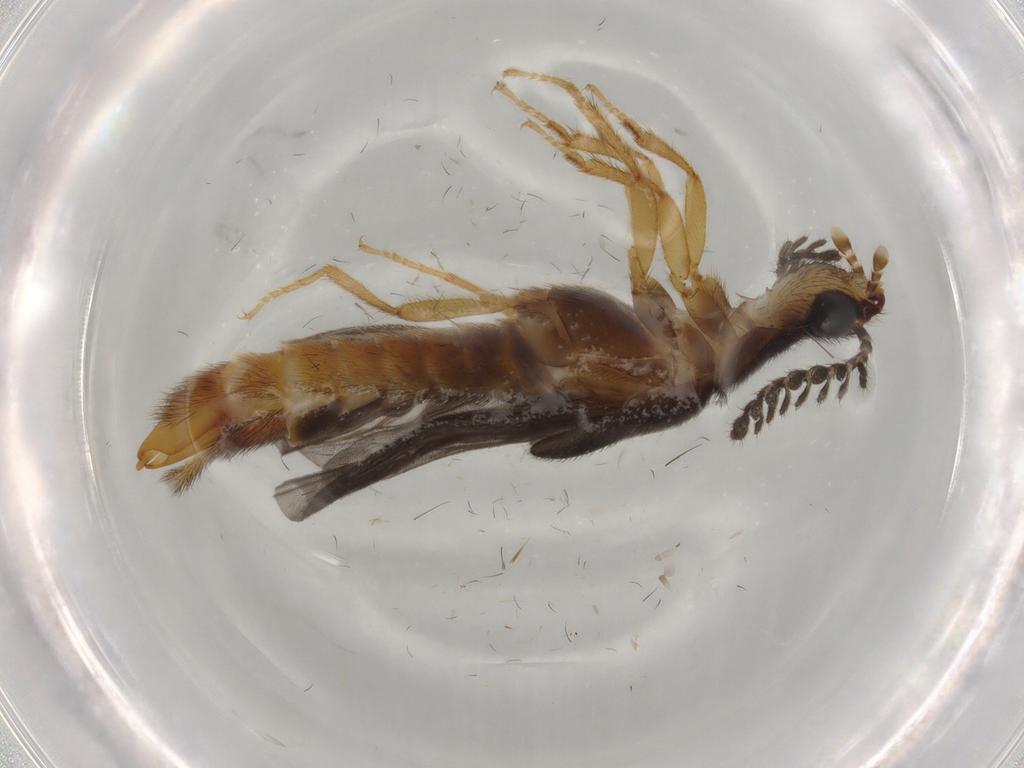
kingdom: Animalia
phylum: Arthropoda
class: Insecta
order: Coleoptera
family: Phengodidae
